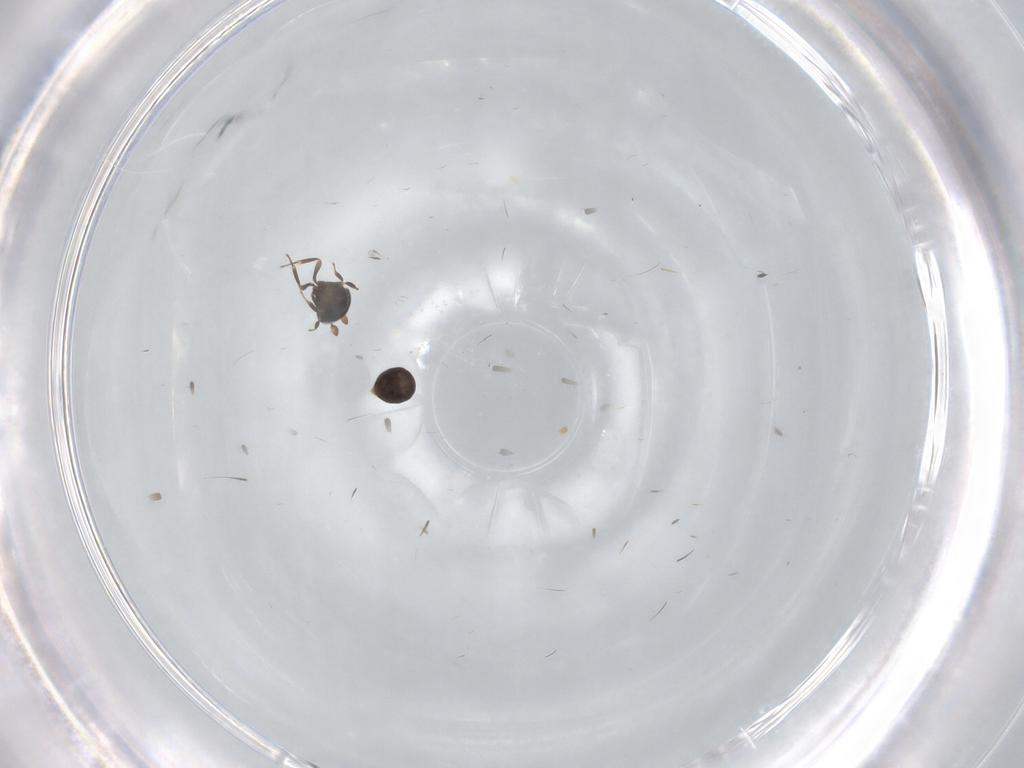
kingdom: Animalia
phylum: Arthropoda
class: Insecta
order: Hymenoptera
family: Scelionidae
